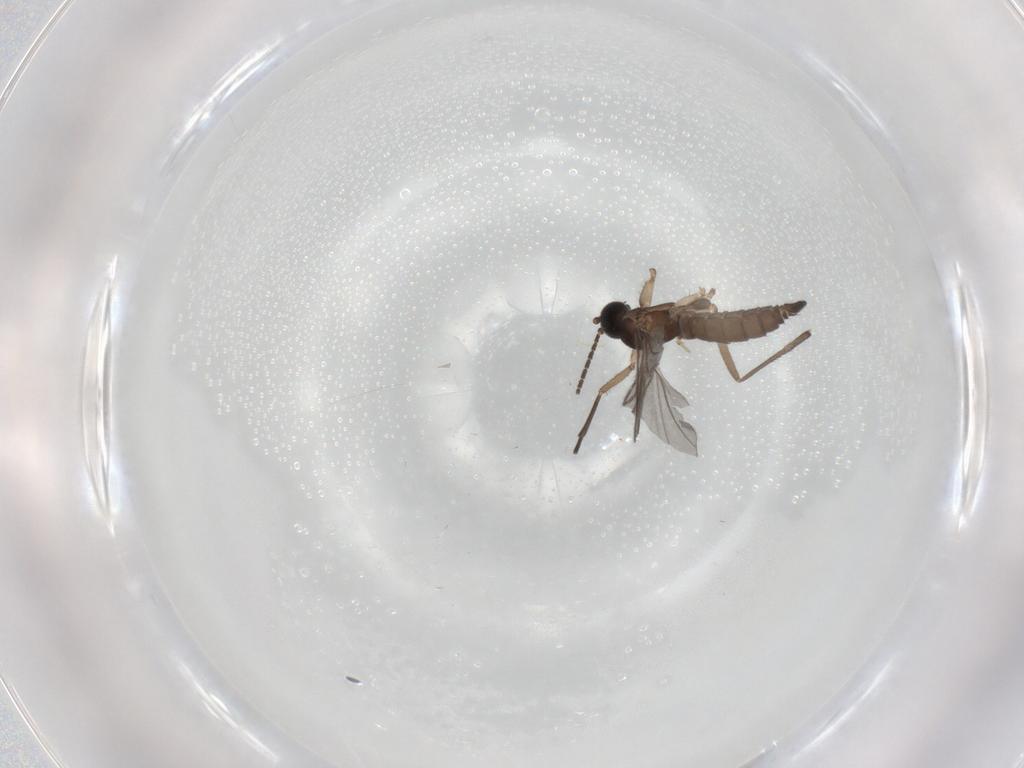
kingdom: Animalia
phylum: Arthropoda
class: Insecta
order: Diptera
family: Sciaridae
